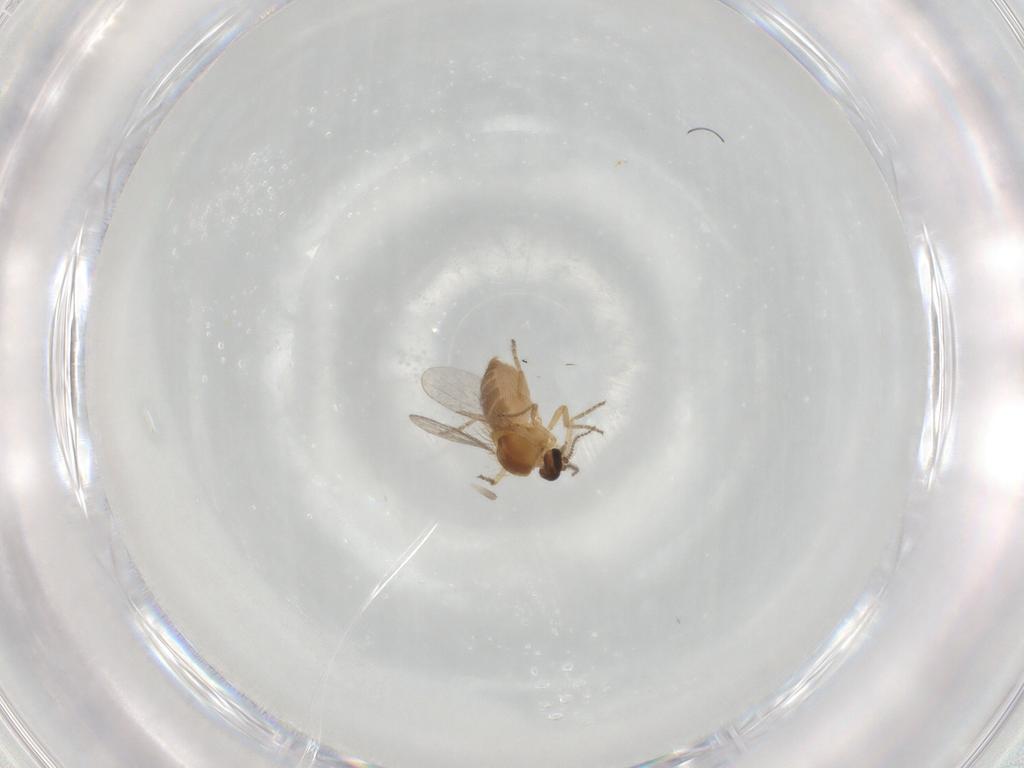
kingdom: Animalia
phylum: Arthropoda
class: Insecta
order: Diptera
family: Ceratopogonidae
